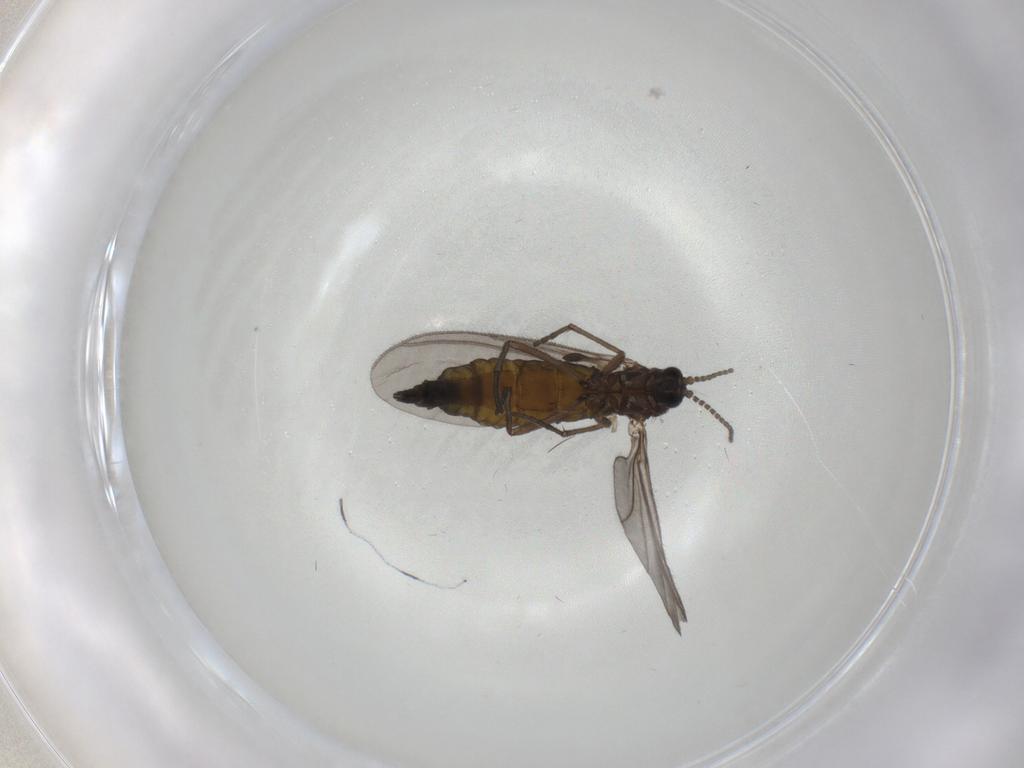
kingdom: Animalia
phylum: Arthropoda
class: Insecta
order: Diptera
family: Sciaridae
